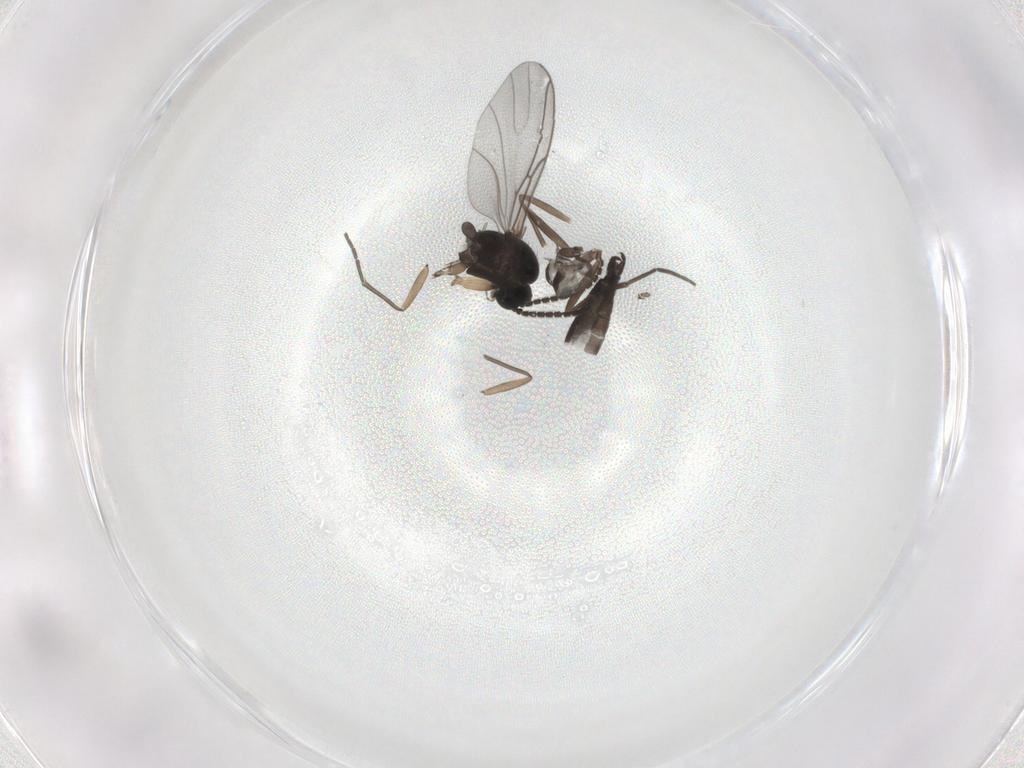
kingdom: Animalia
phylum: Arthropoda
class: Insecta
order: Diptera
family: Sciaridae
